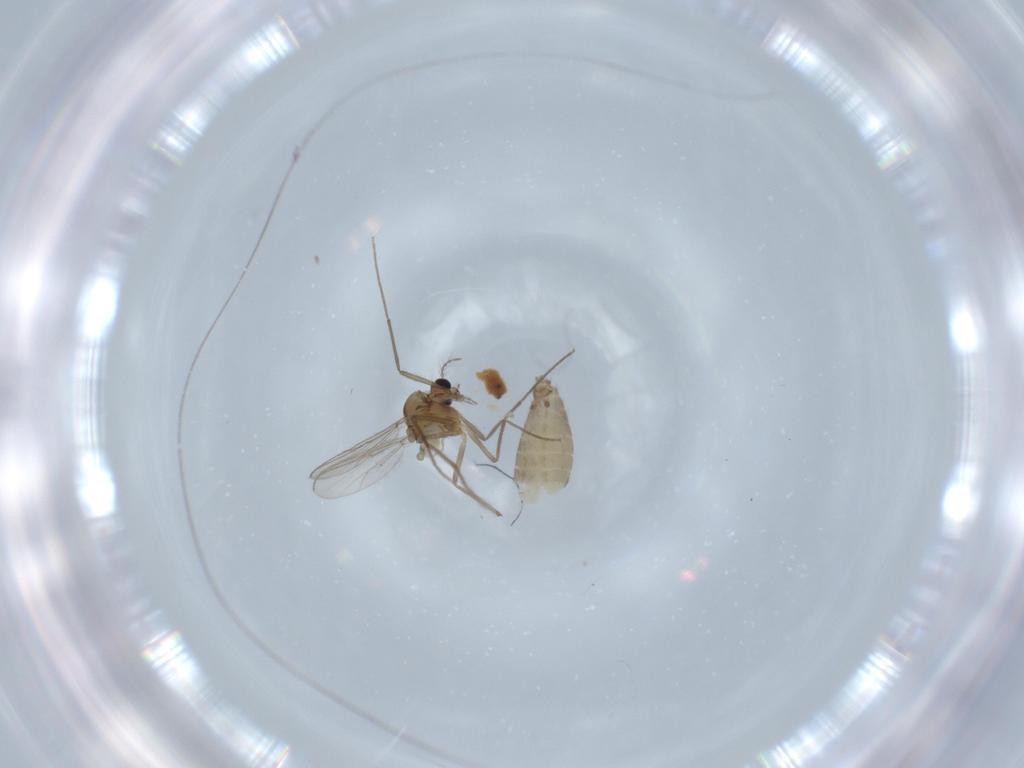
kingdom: Animalia
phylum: Arthropoda
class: Insecta
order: Diptera
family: Chironomidae
